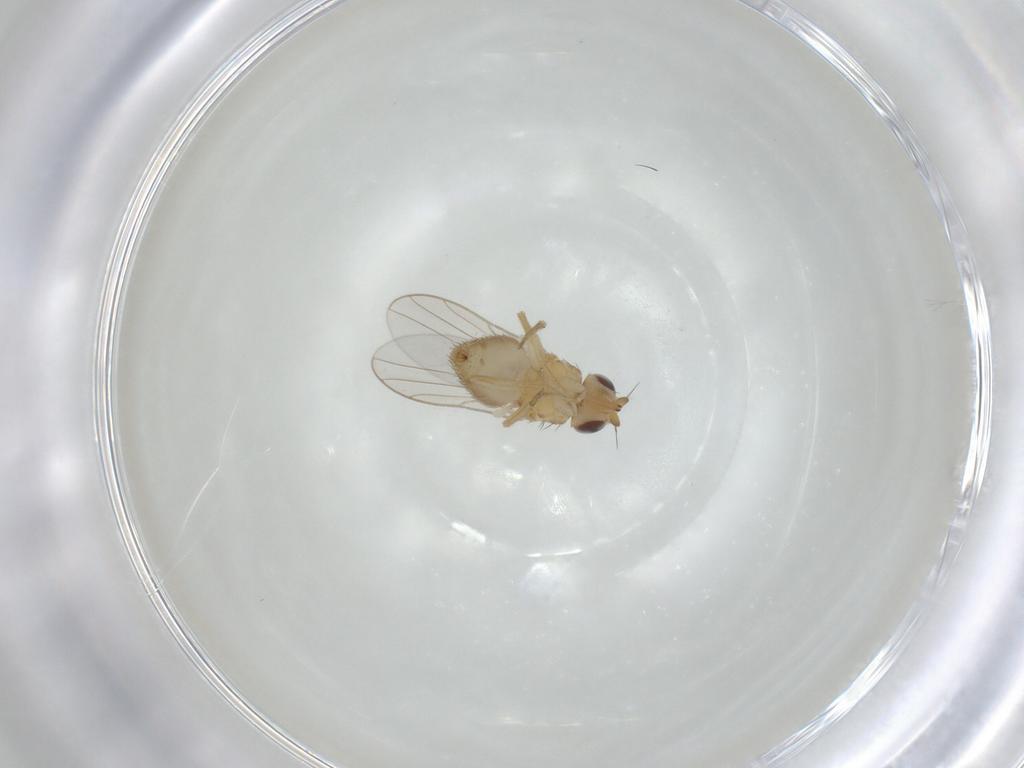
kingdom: Animalia
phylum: Arthropoda
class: Insecta
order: Diptera
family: Chloropidae
